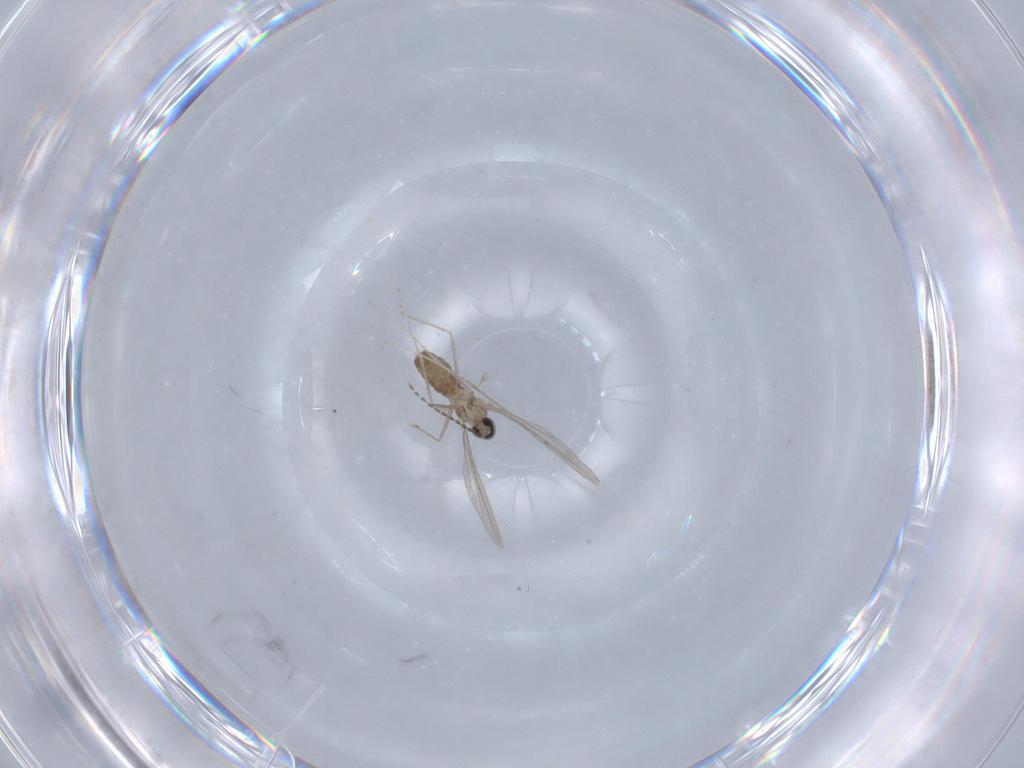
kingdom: Animalia
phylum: Arthropoda
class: Insecta
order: Diptera
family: Cecidomyiidae
